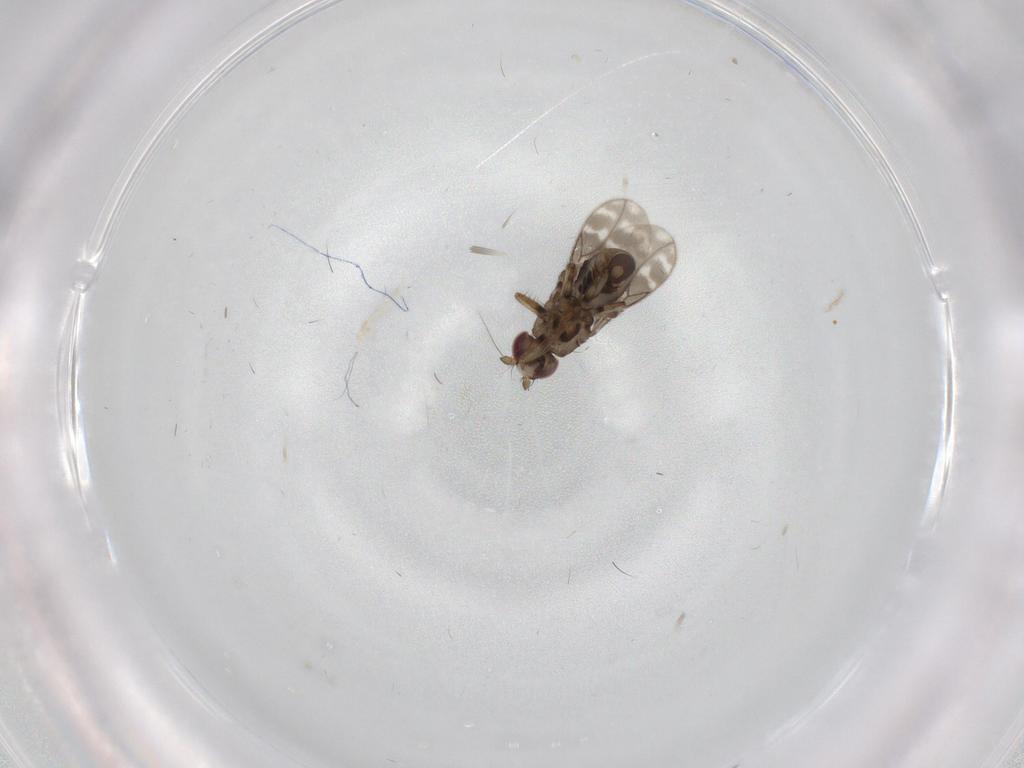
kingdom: Animalia
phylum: Arthropoda
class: Insecta
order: Diptera
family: Sphaeroceridae
